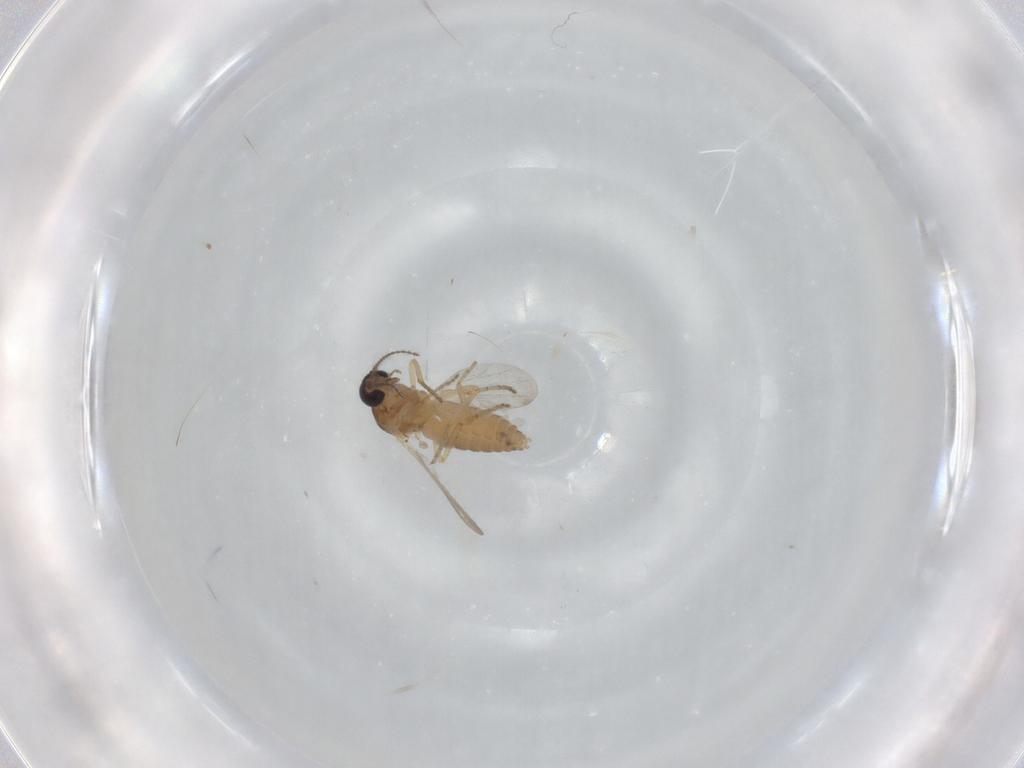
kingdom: Animalia
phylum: Arthropoda
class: Insecta
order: Diptera
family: Ceratopogonidae
